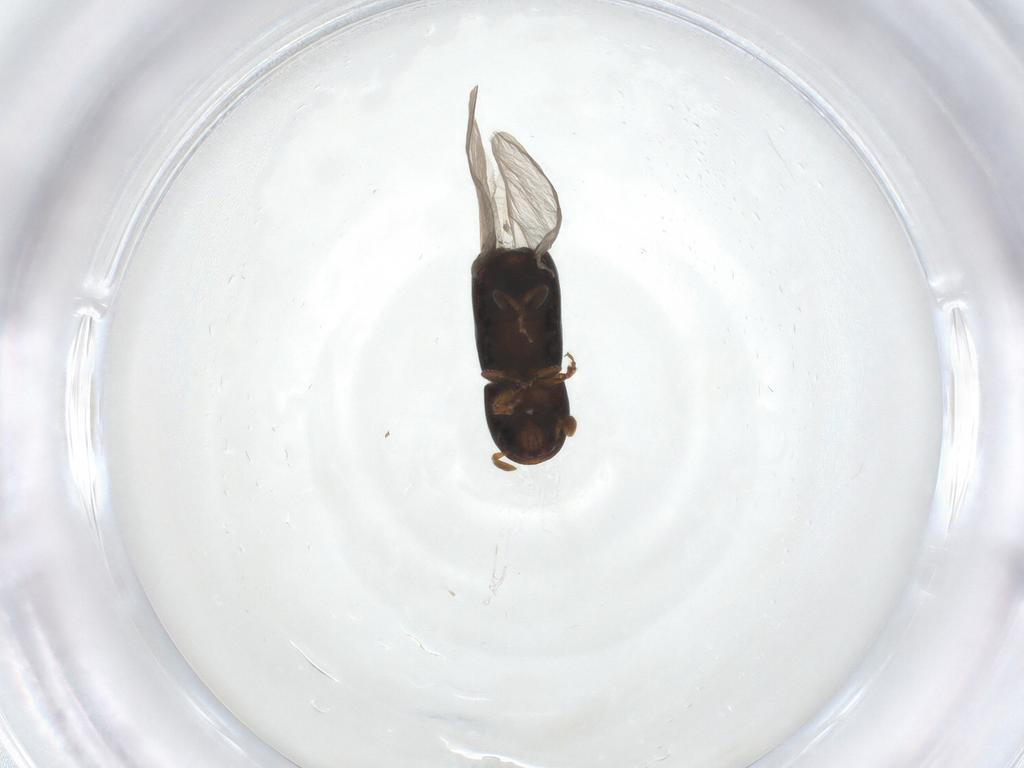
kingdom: Animalia
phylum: Arthropoda
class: Insecta
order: Coleoptera
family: Curculionidae
